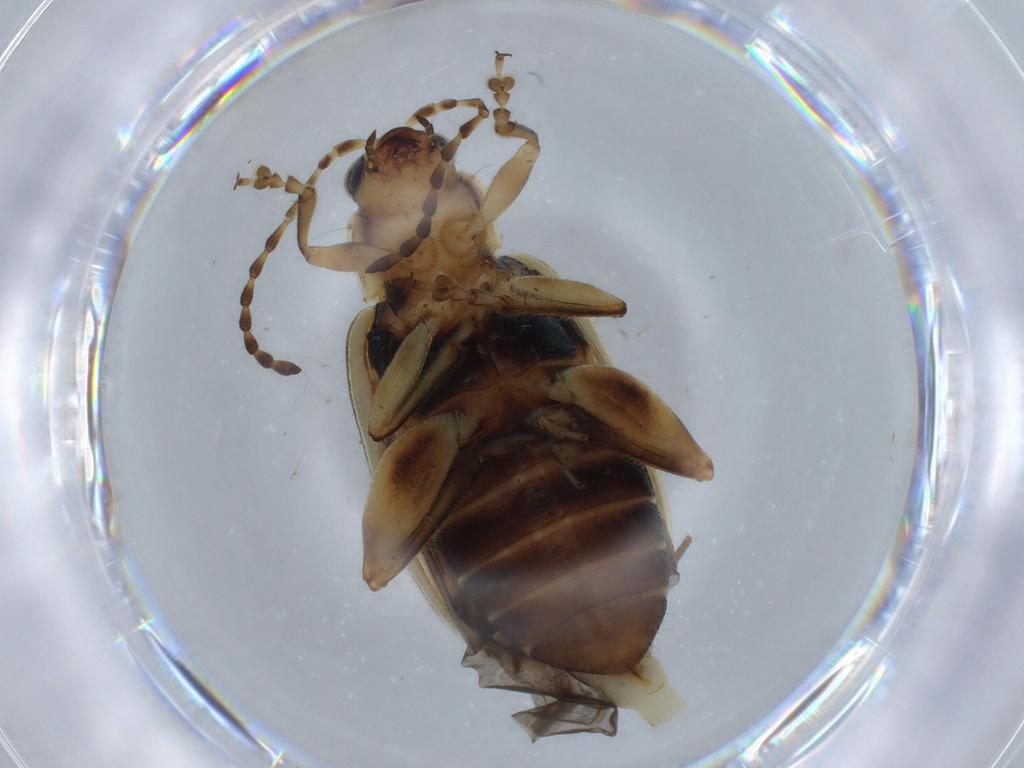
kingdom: Animalia
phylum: Arthropoda
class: Insecta
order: Coleoptera
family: Chrysomelidae
